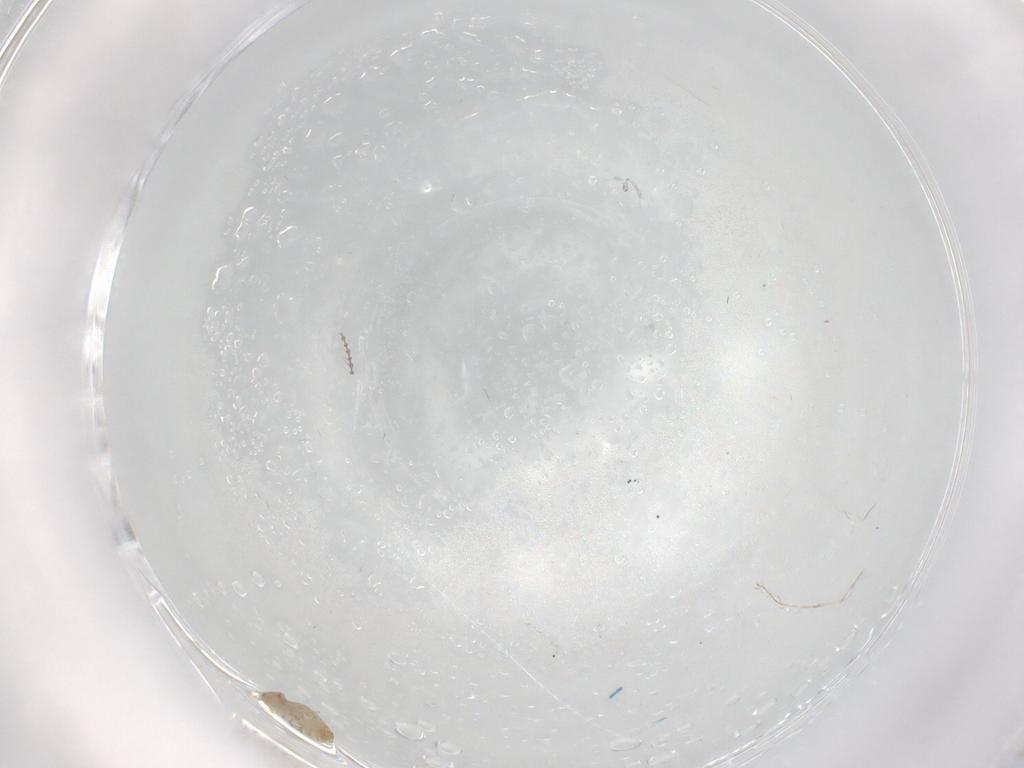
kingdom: Animalia
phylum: Arthropoda
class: Insecta
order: Diptera
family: Cecidomyiidae
